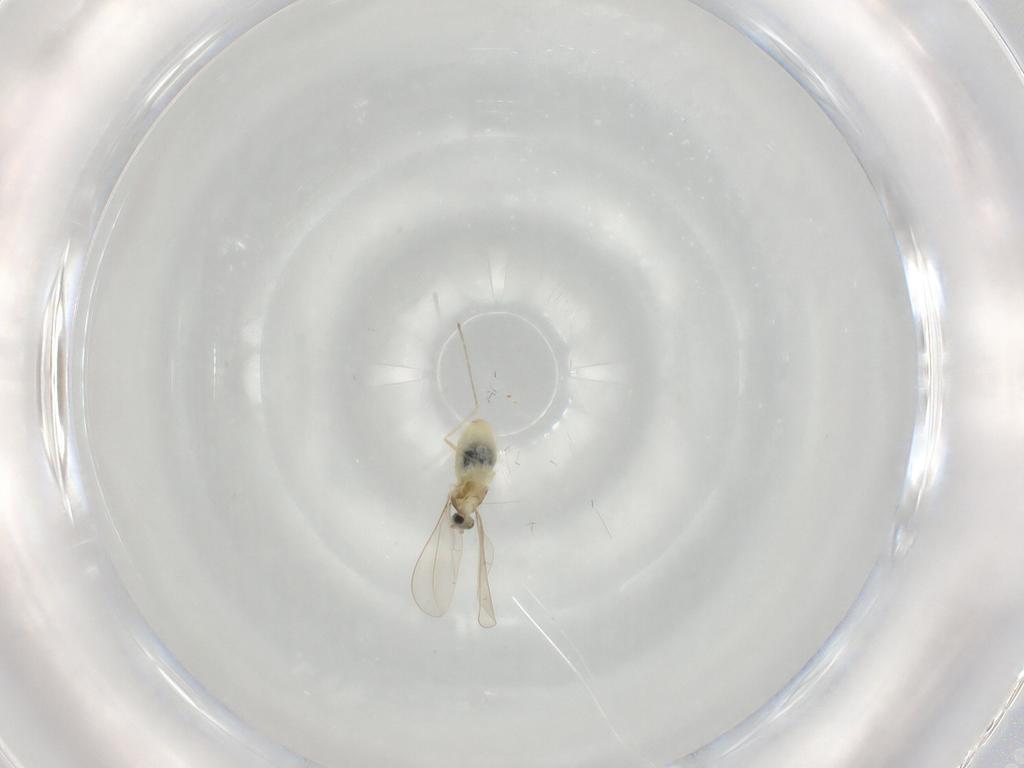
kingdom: Animalia
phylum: Arthropoda
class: Insecta
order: Diptera
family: Cecidomyiidae
